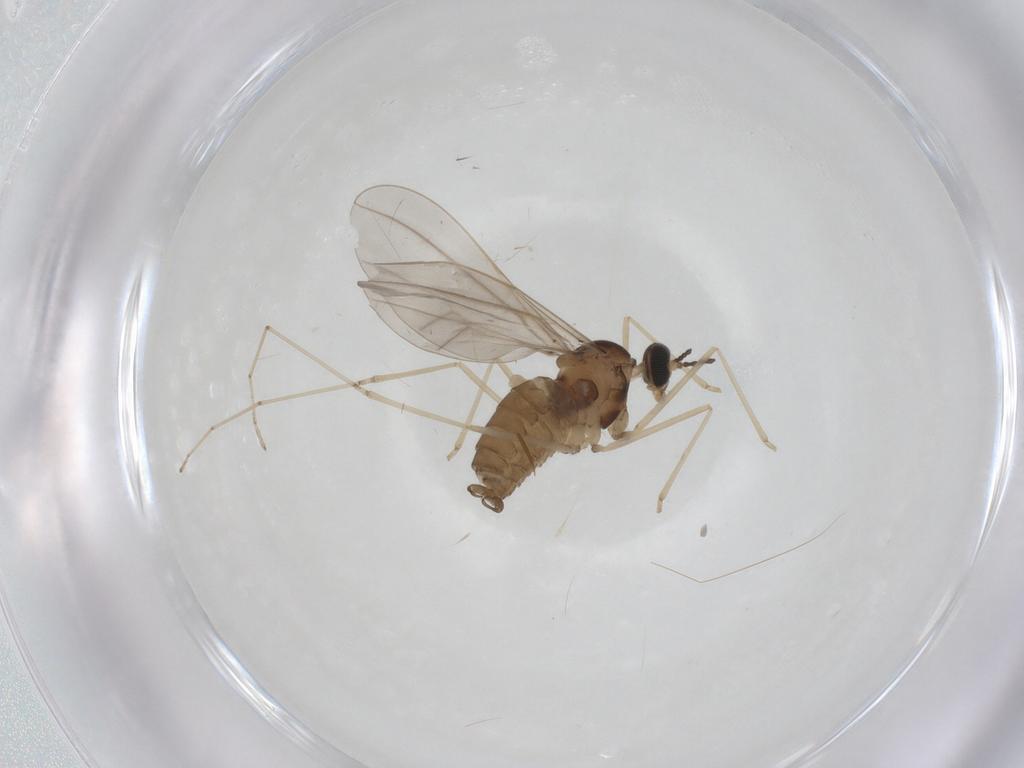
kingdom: Animalia
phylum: Arthropoda
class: Insecta
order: Diptera
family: Cecidomyiidae
